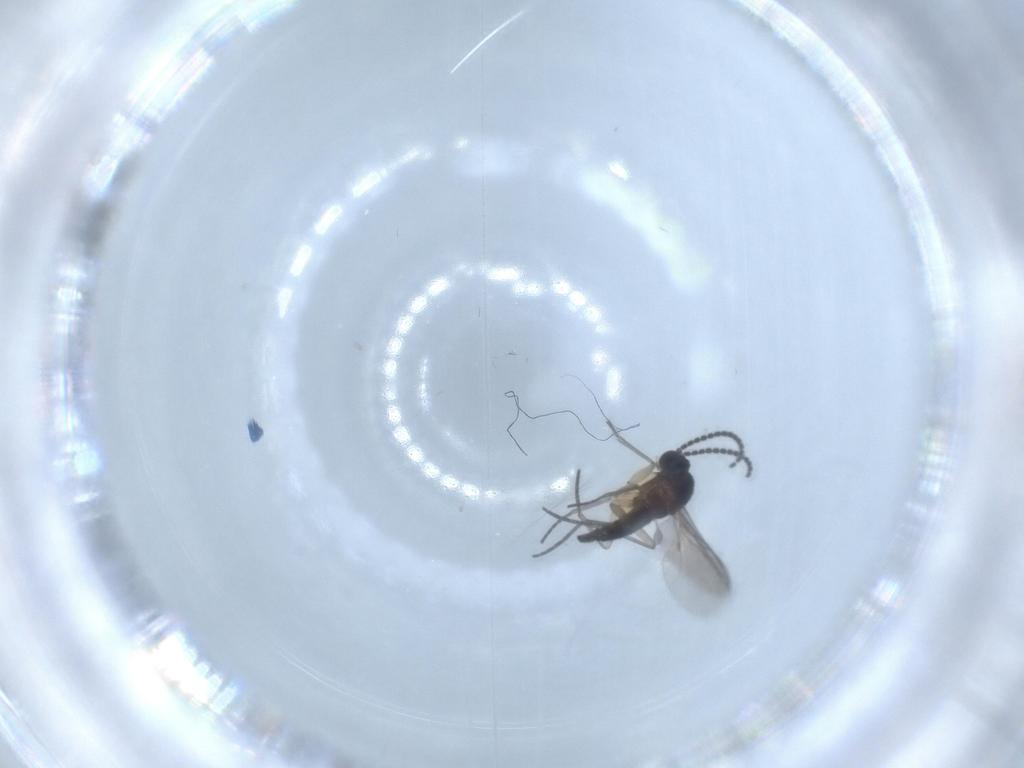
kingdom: Animalia
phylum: Arthropoda
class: Insecta
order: Diptera
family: Sciaridae
